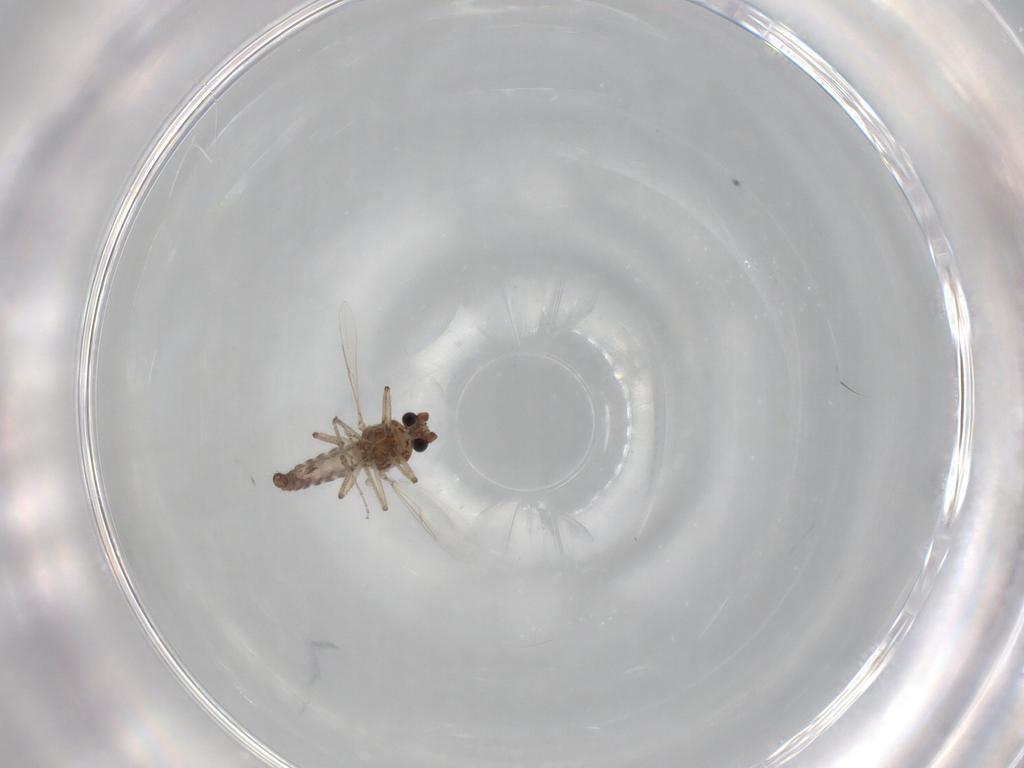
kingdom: Animalia
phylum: Arthropoda
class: Insecta
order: Diptera
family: Ceratopogonidae
